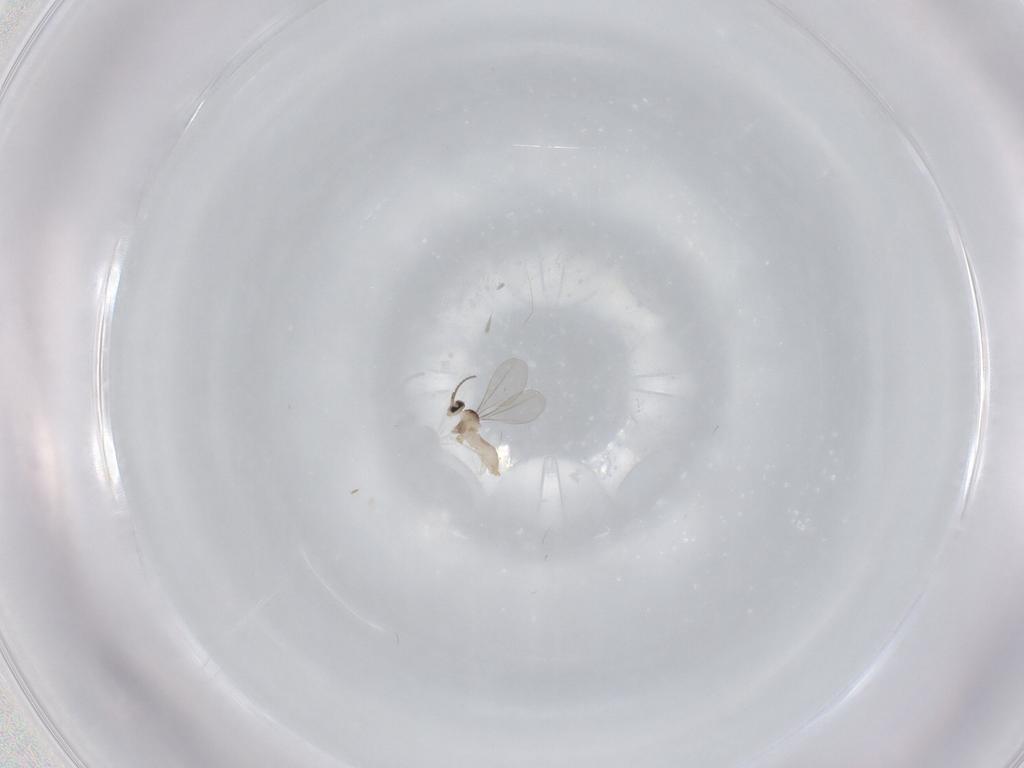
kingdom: Animalia
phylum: Arthropoda
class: Insecta
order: Diptera
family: Cecidomyiidae
